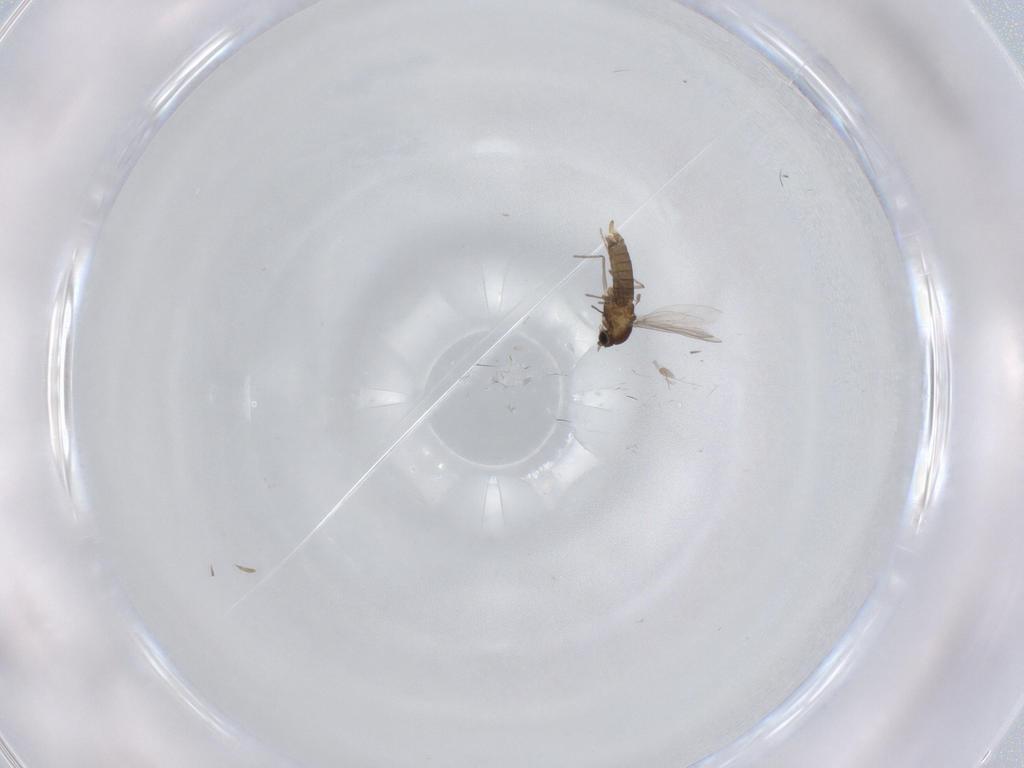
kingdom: Animalia
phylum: Arthropoda
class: Insecta
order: Diptera
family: Chironomidae
